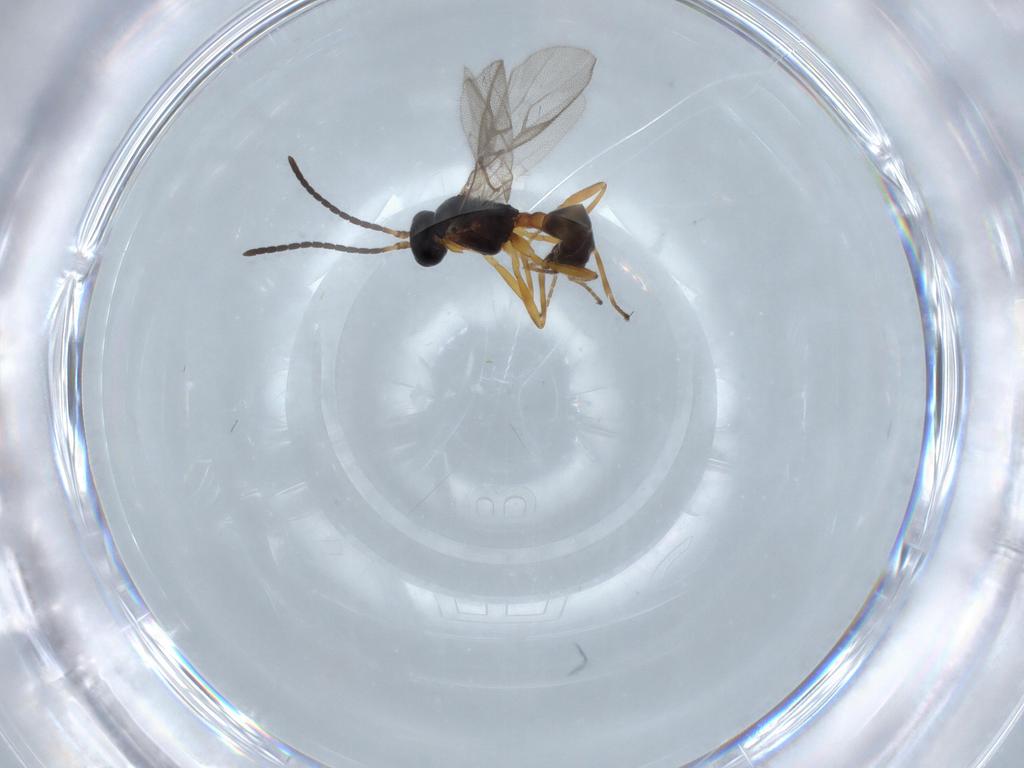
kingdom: Animalia
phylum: Arthropoda
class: Insecta
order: Hymenoptera
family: Braconidae
